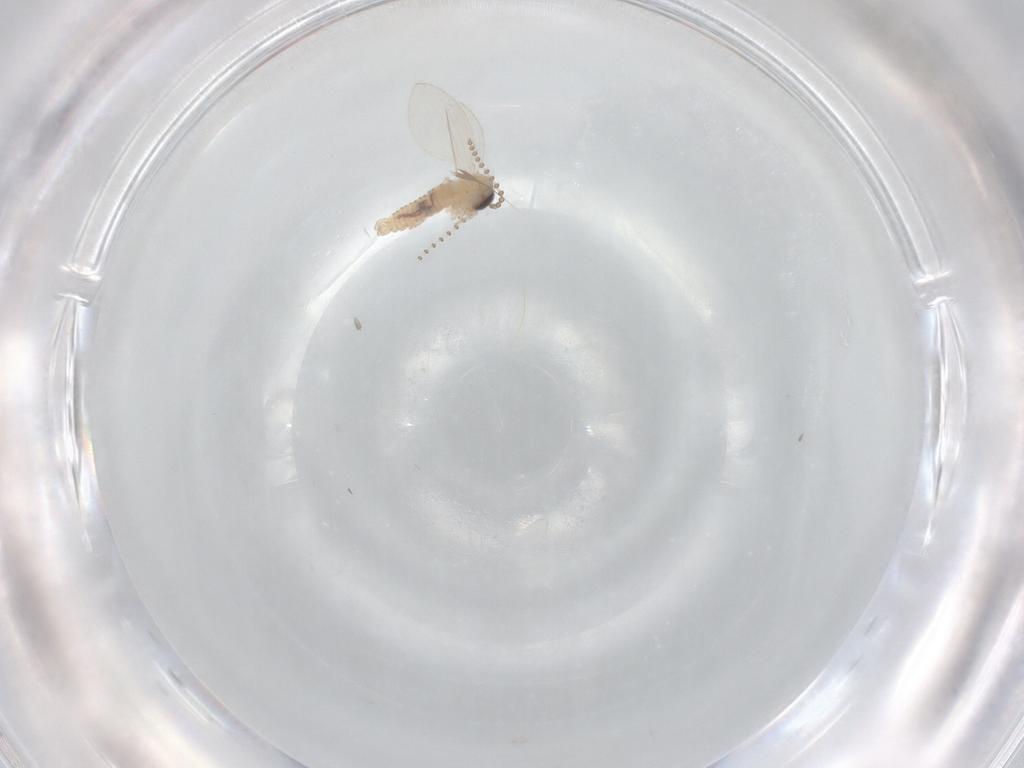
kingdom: Animalia
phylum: Arthropoda
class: Insecta
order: Diptera
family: Psychodidae
